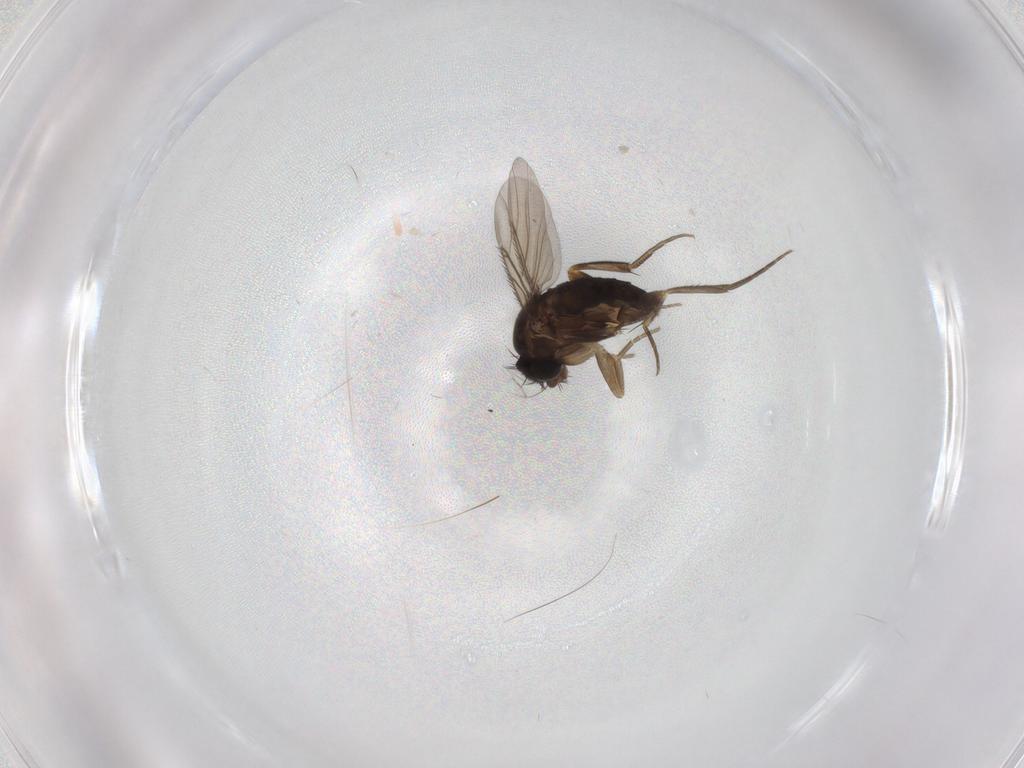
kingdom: Animalia
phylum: Arthropoda
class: Insecta
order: Diptera
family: Phoridae
